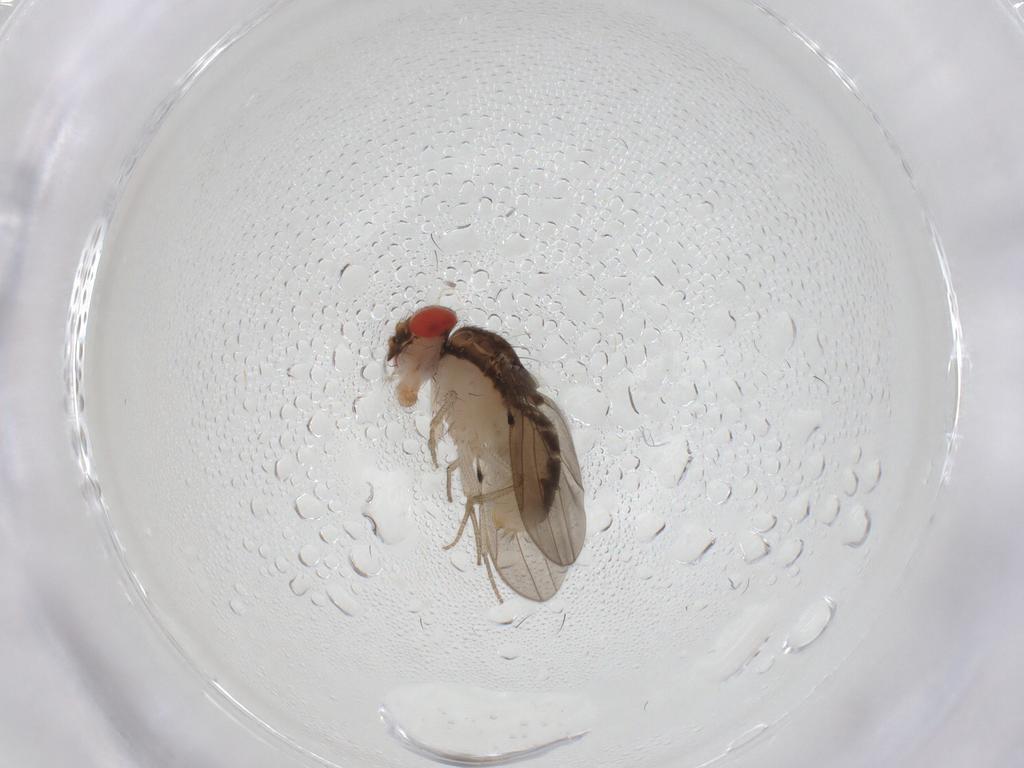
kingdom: Animalia
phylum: Arthropoda
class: Insecta
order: Diptera
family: Drosophilidae
